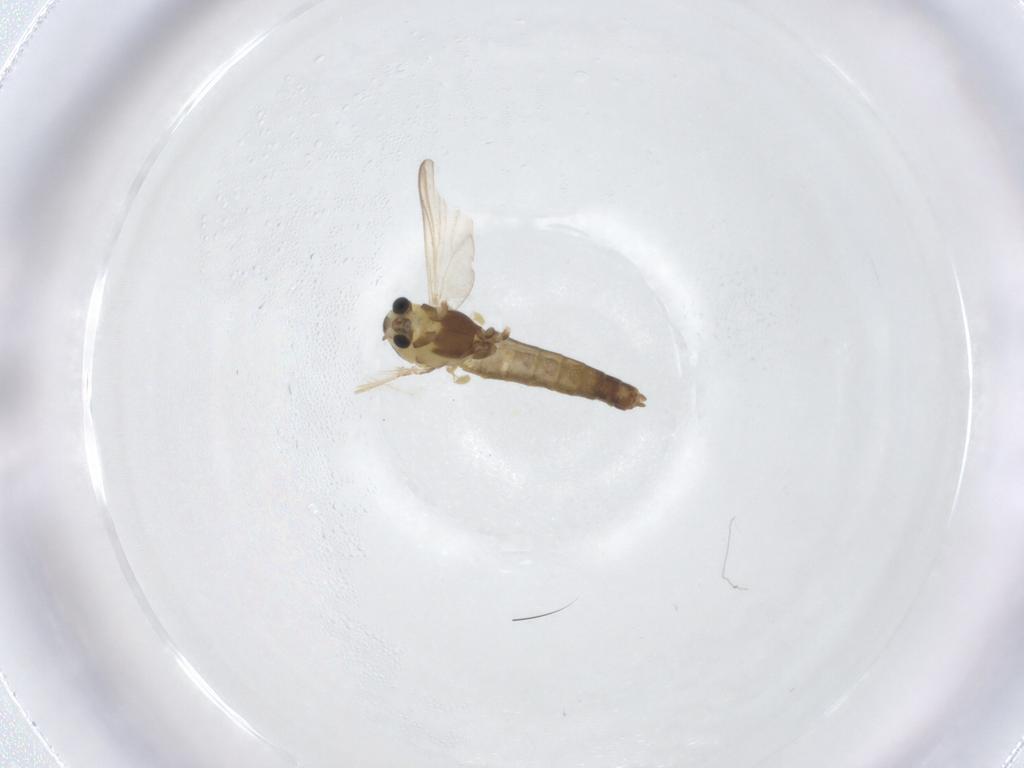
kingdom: Animalia
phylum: Arthropoda
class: Insecta
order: Diptera
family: Chironomidae
